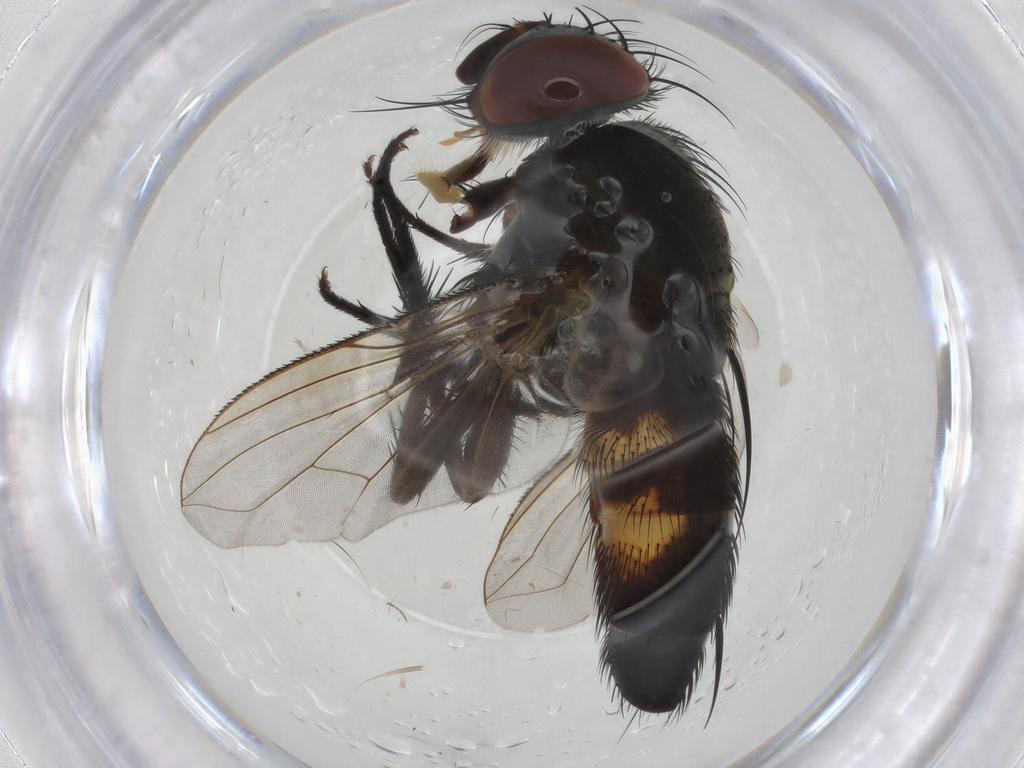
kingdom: Animalia
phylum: Arthropoda
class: Insecta
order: Diptera
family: Tachinidae
